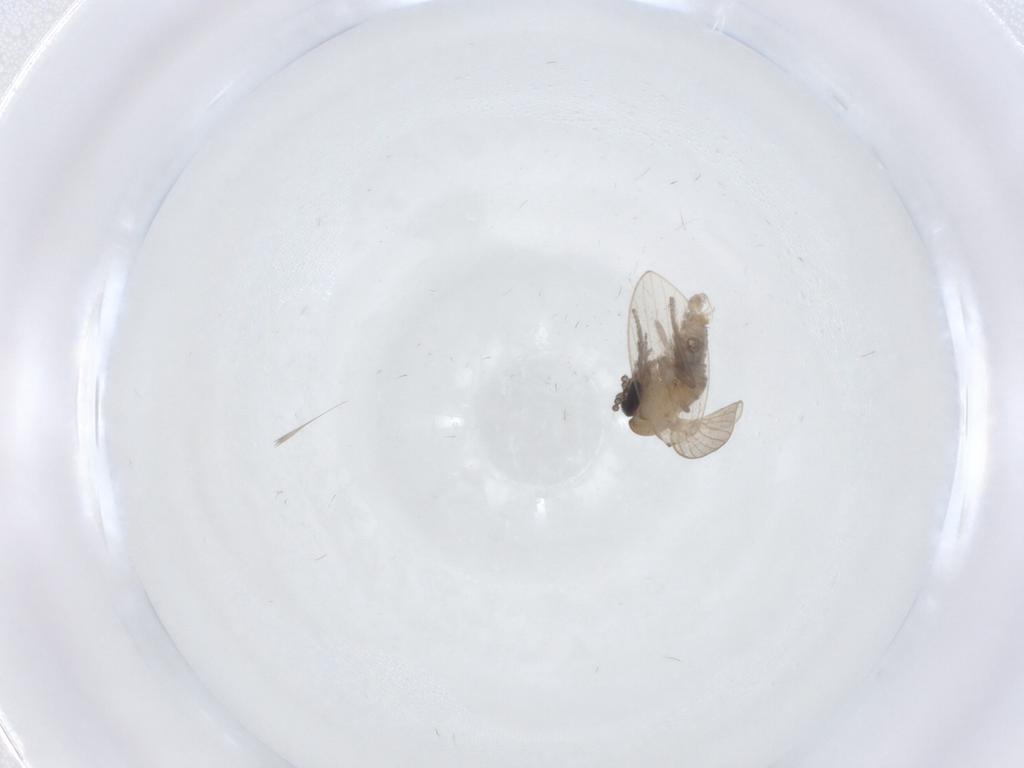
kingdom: Animalia
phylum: Arthropoda
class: Insecta
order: Diptera
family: Psychodidae
